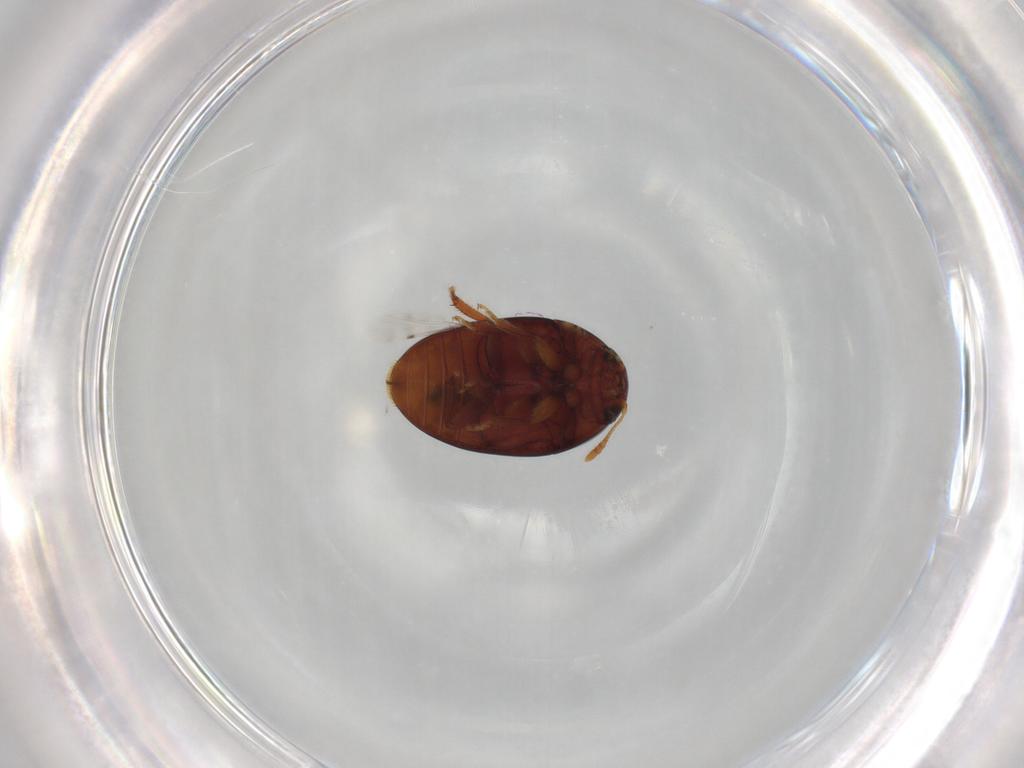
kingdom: Animalia
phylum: Arthropoda
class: Insecta
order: Coleoptera
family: Phalacridae
